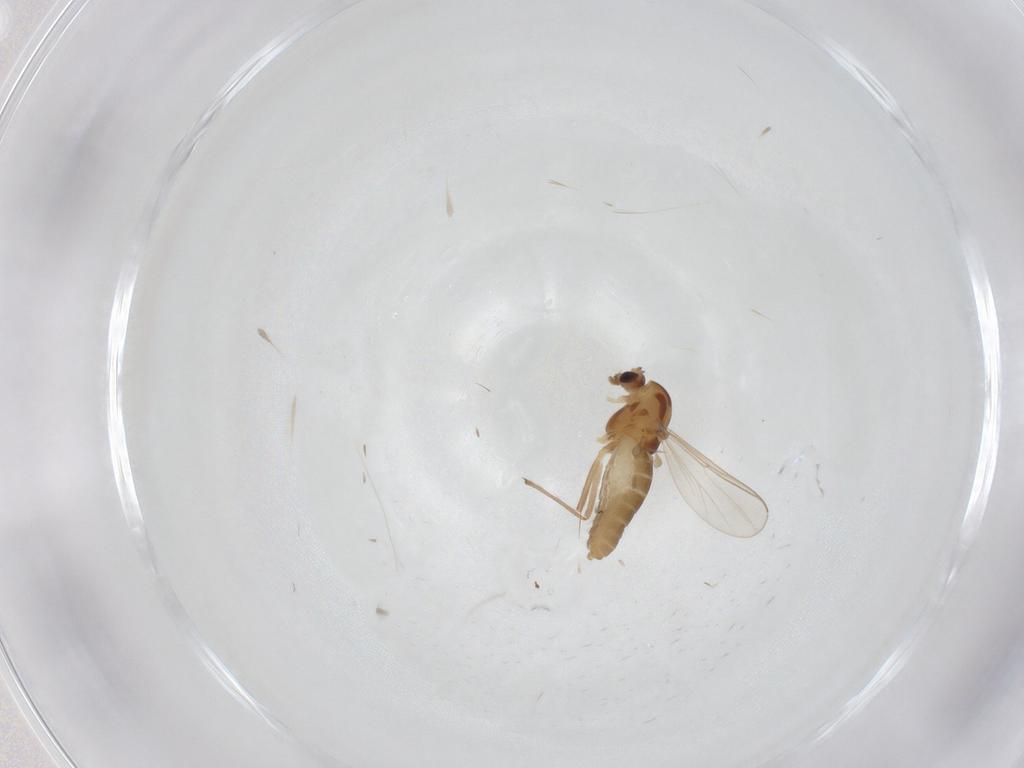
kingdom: Animalia
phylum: Arthropoda
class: Insecta
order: Diptera
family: Chironomidae
